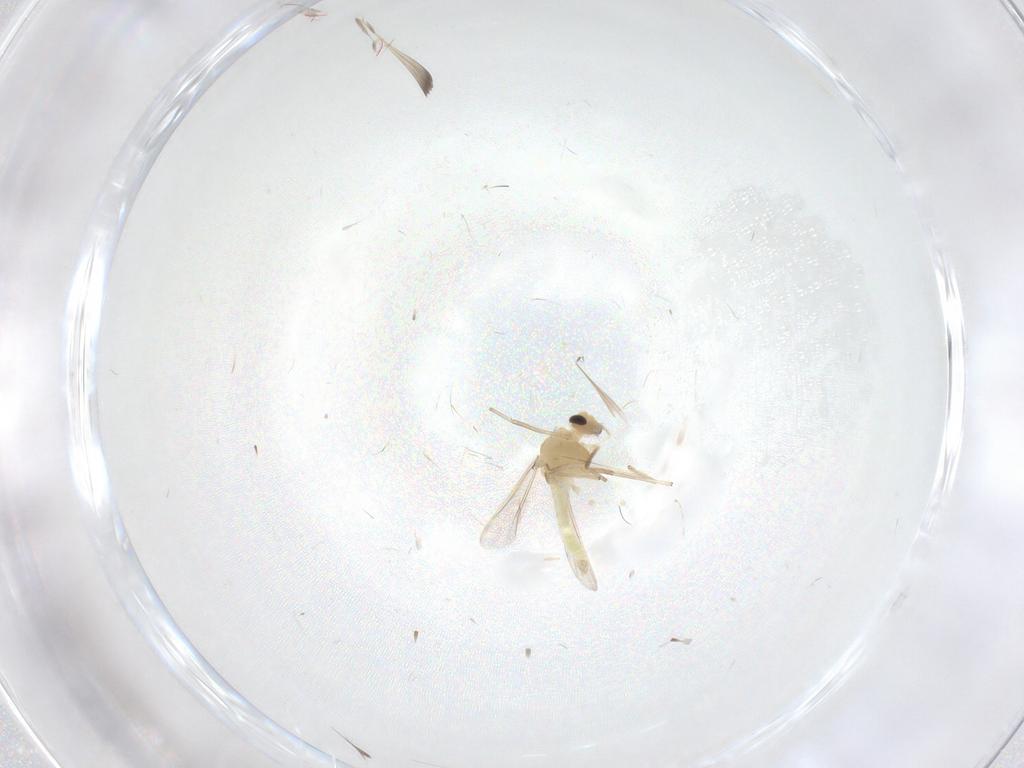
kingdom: Animalia
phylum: Arthropoda
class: Insecta
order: Diptera
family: Chironomidae
